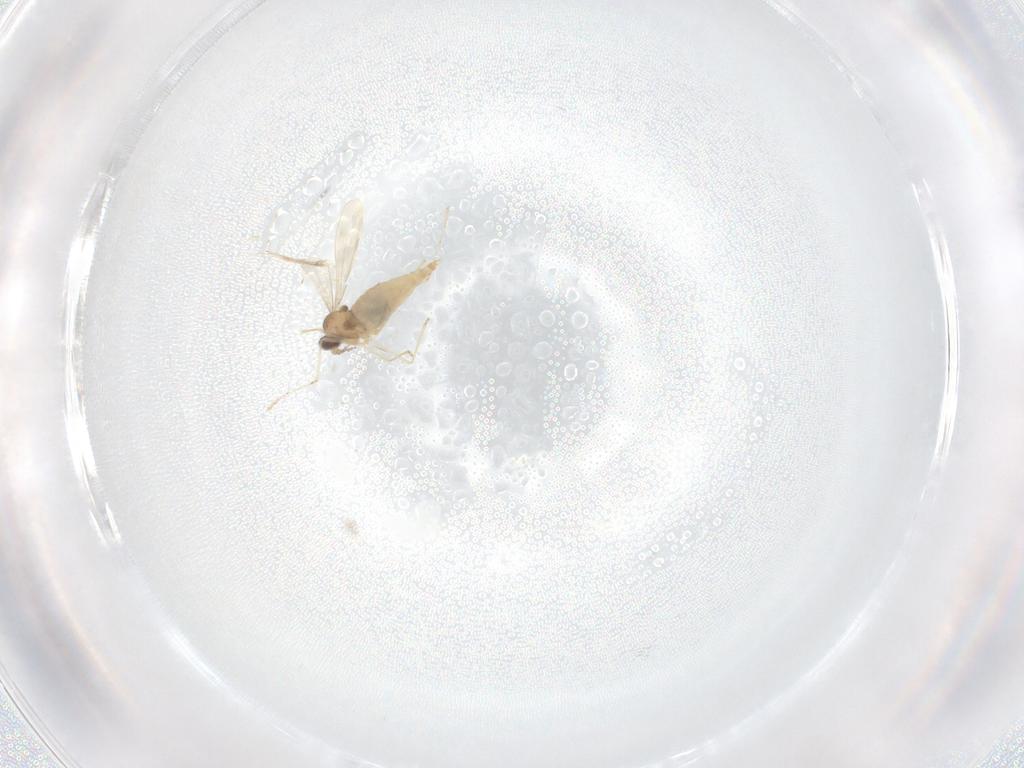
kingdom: Animalia
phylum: Arthropoda
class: Insecta
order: Diptera
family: Cecidomyiidae
